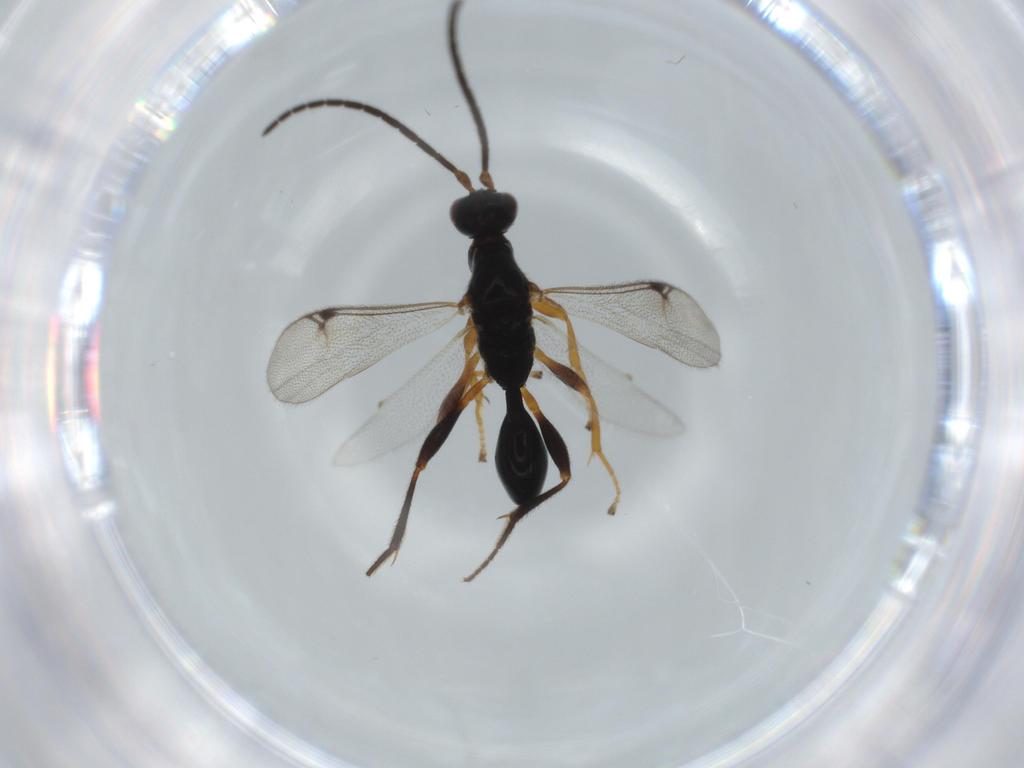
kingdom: Animalia
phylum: Arthropoda
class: Insecta
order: Hymenoptera
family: Proctotrupidae
